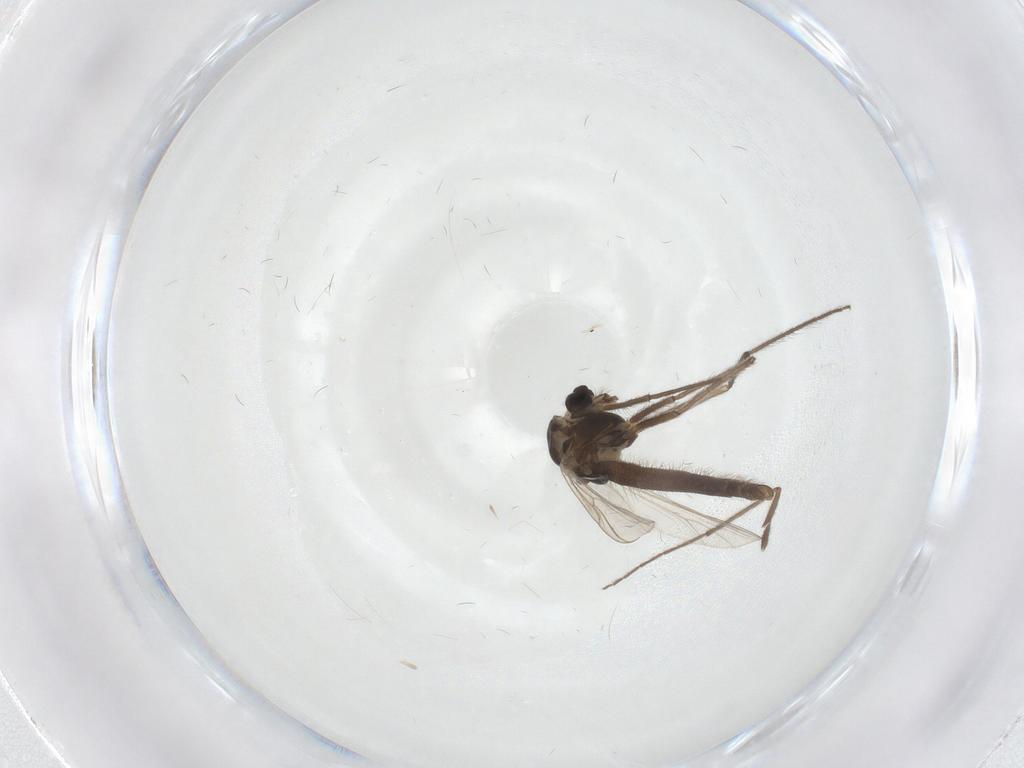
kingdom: Animalia
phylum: Arthropoda
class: Insecta
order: Diptera
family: Chironomidae
